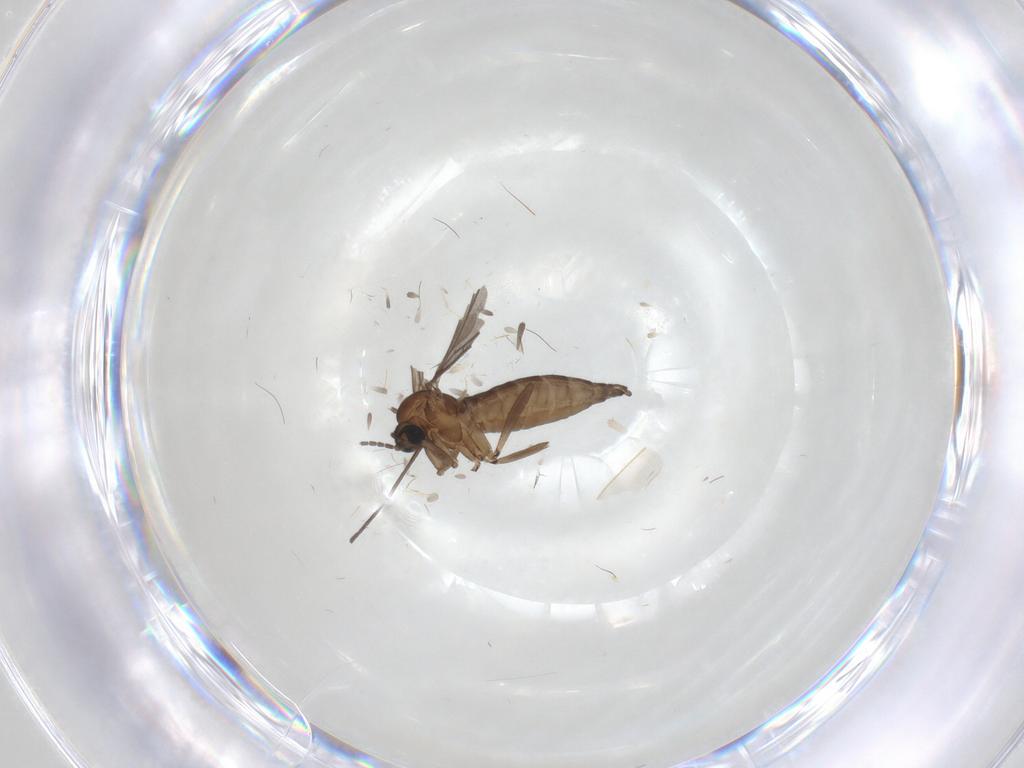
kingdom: Animalia
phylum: Arthropoda
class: Insecta
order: Diptera
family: Sciaridae
